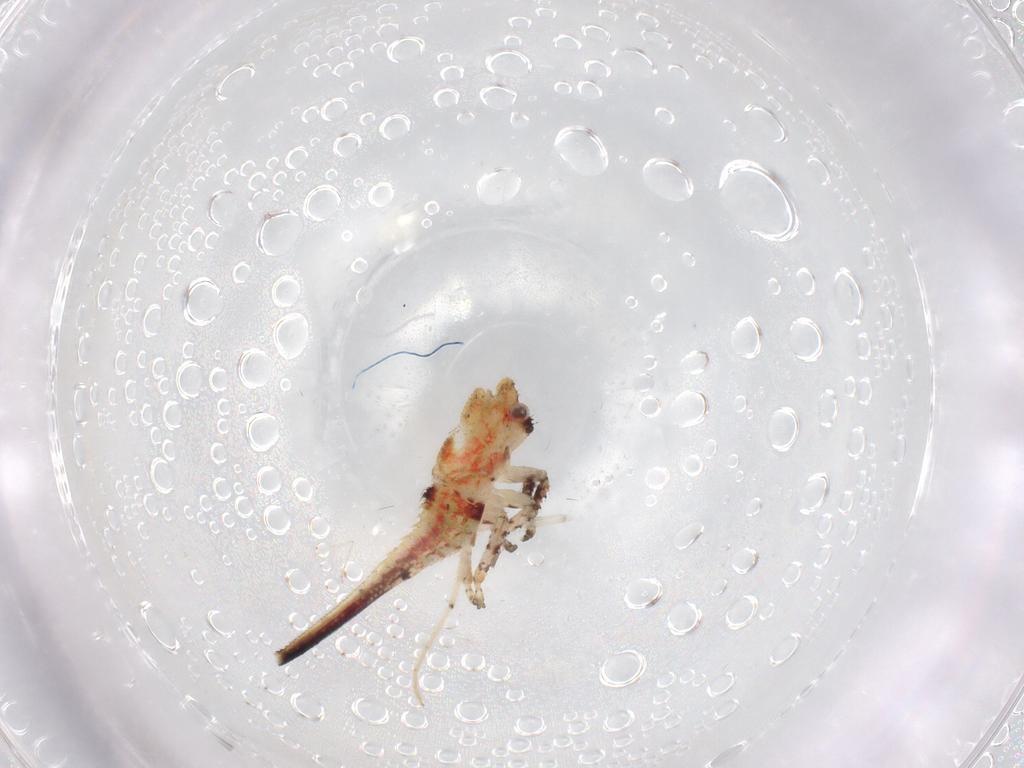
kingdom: Animalia
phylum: Arthropoda
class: Insecta
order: Hemiptera
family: Membracidae
